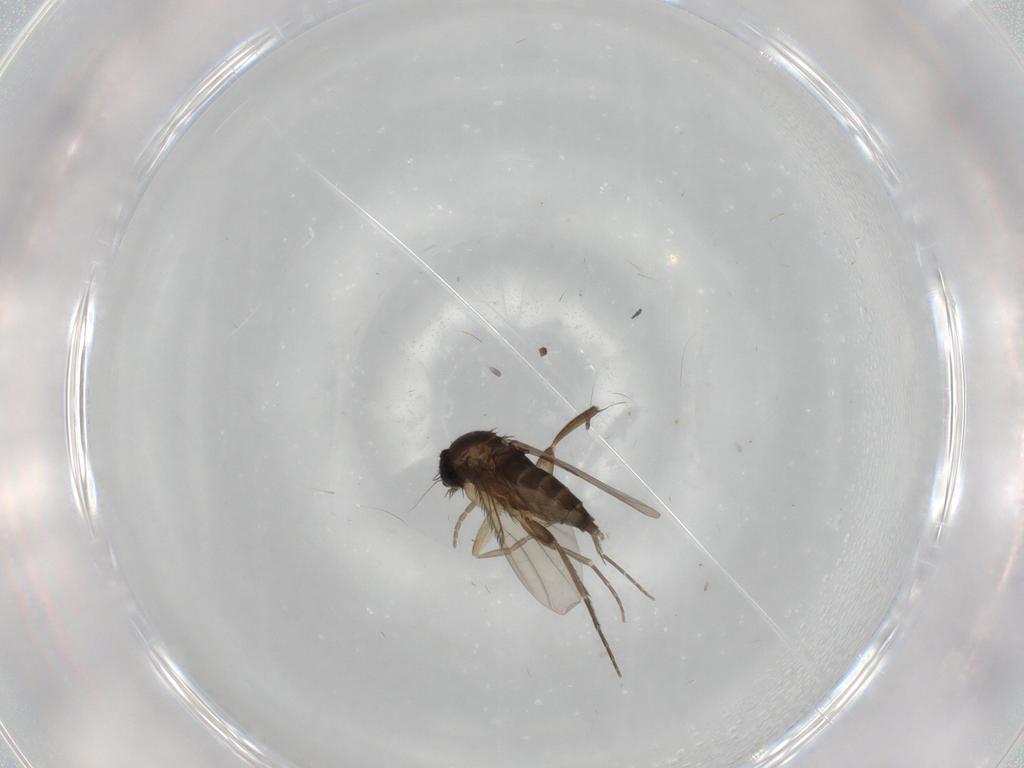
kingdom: Animalia
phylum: Arthropoda
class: Insecta
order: Diptera
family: Phoridae
